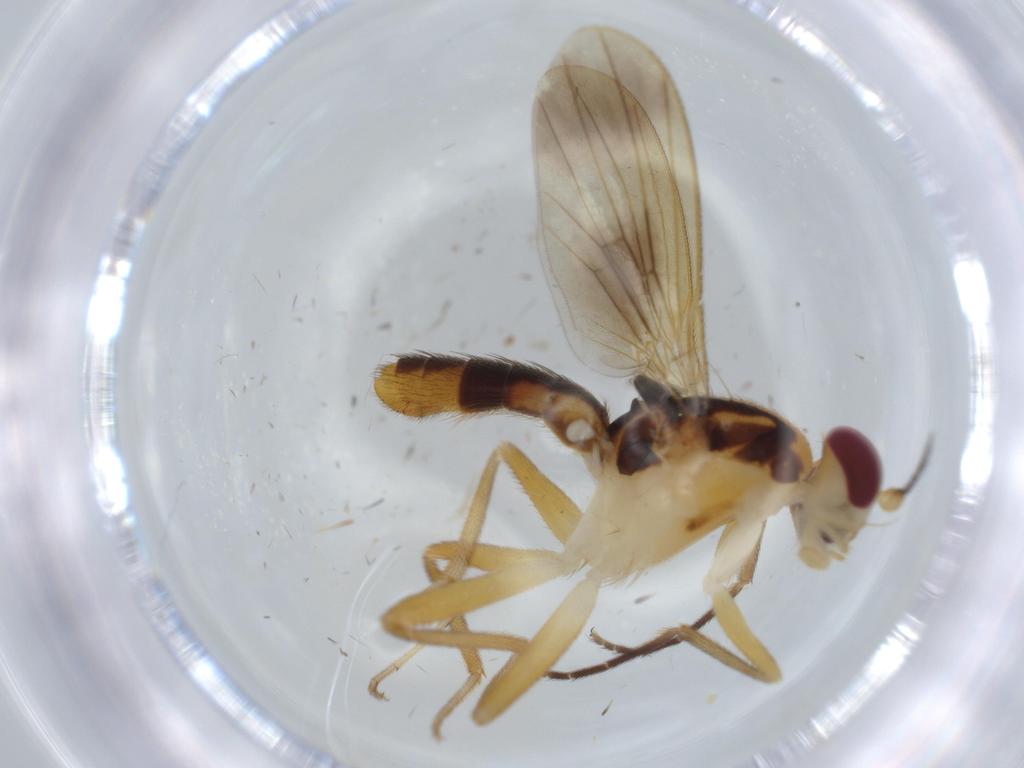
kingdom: Animalia
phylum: Arthropoda
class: Insecta
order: Diptera
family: Clusiidae
